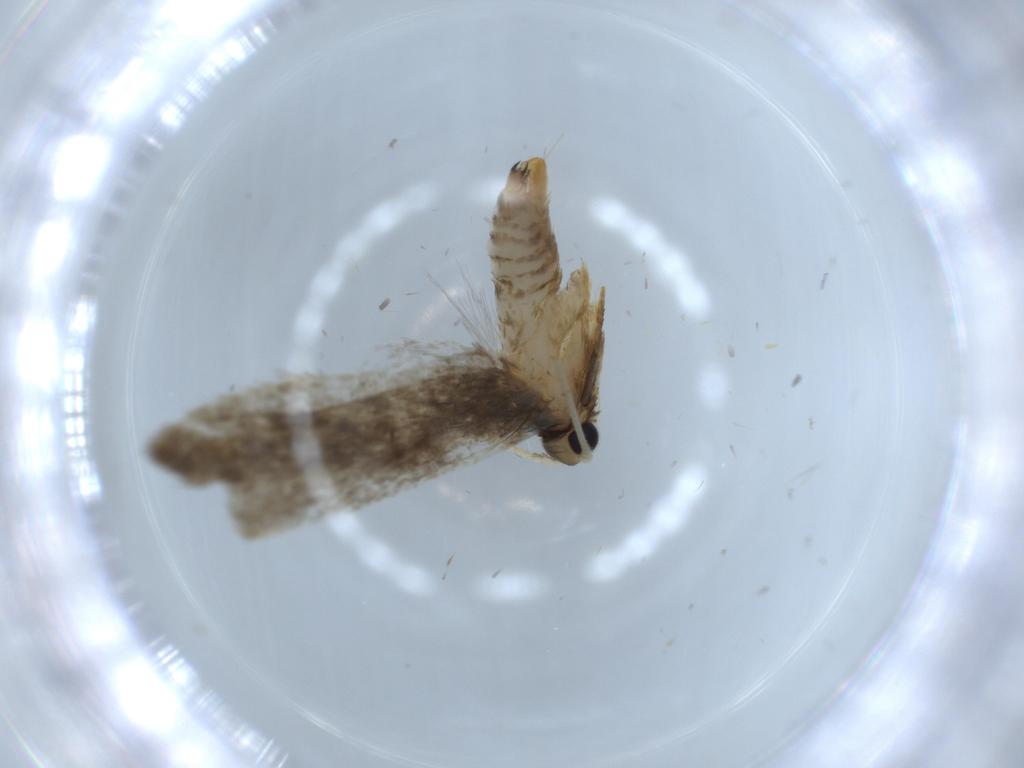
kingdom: Animalia
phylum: Arthropoda
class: Insecta
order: Lepidoptera
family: Tineidae
